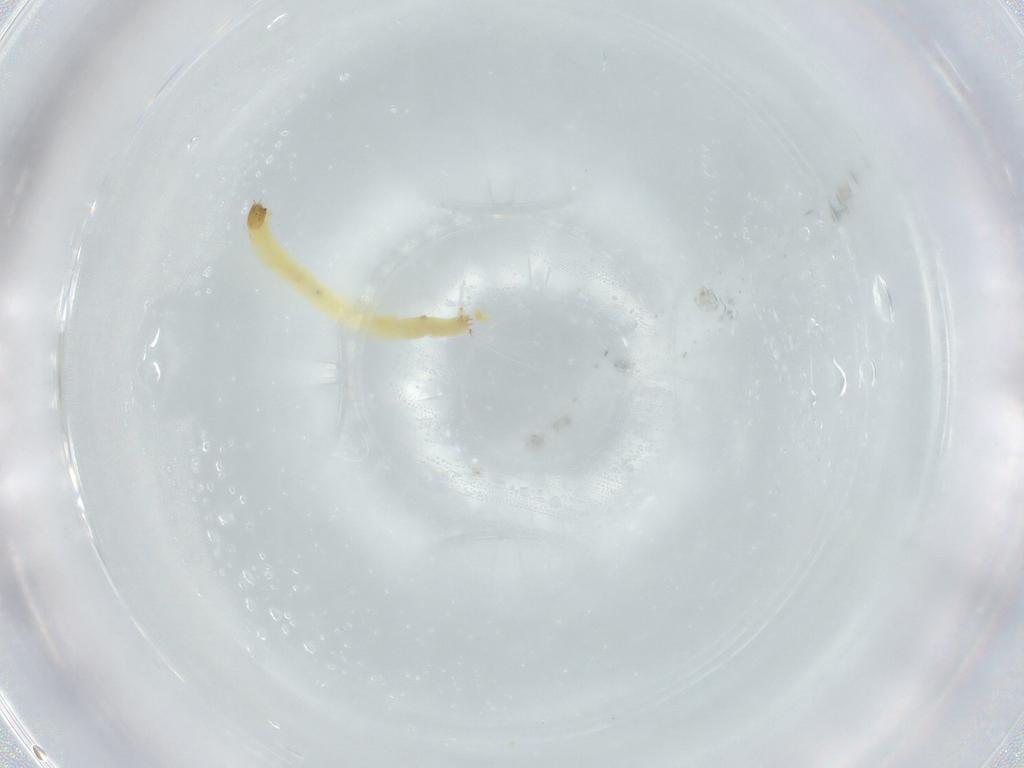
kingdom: Animalia
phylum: Arthropoda
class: Insecta
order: Diptera
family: Chironomidae
